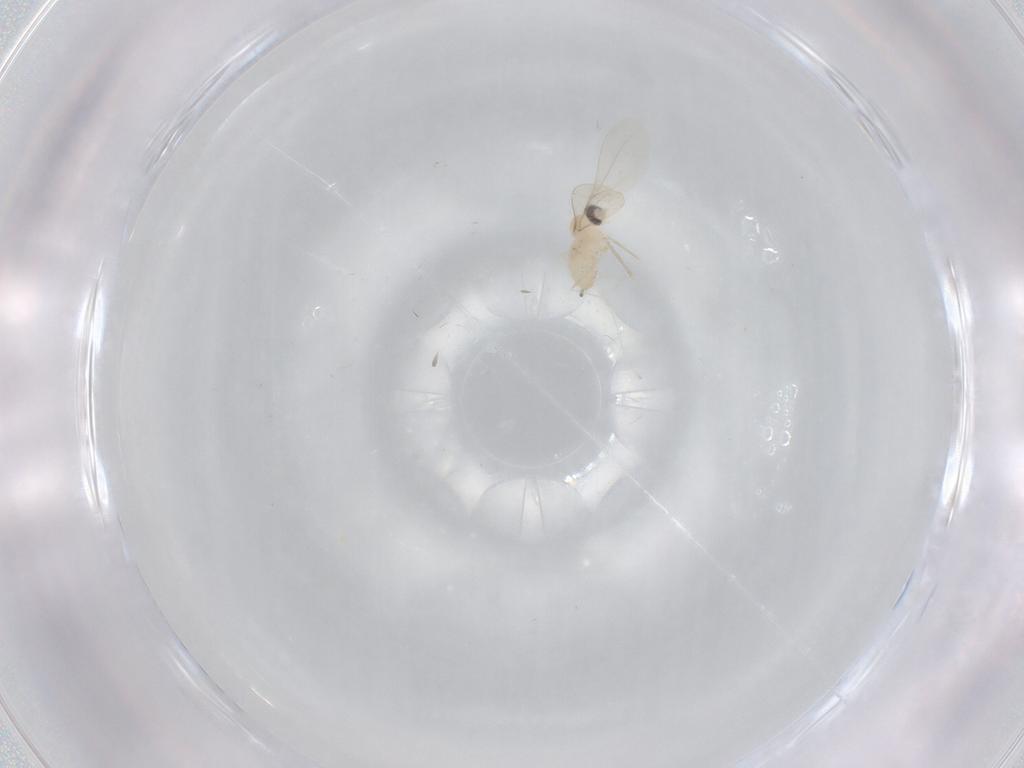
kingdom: Animalia
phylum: Arthropoda
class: Insecta
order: Diptera
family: Cecidomyiidae
